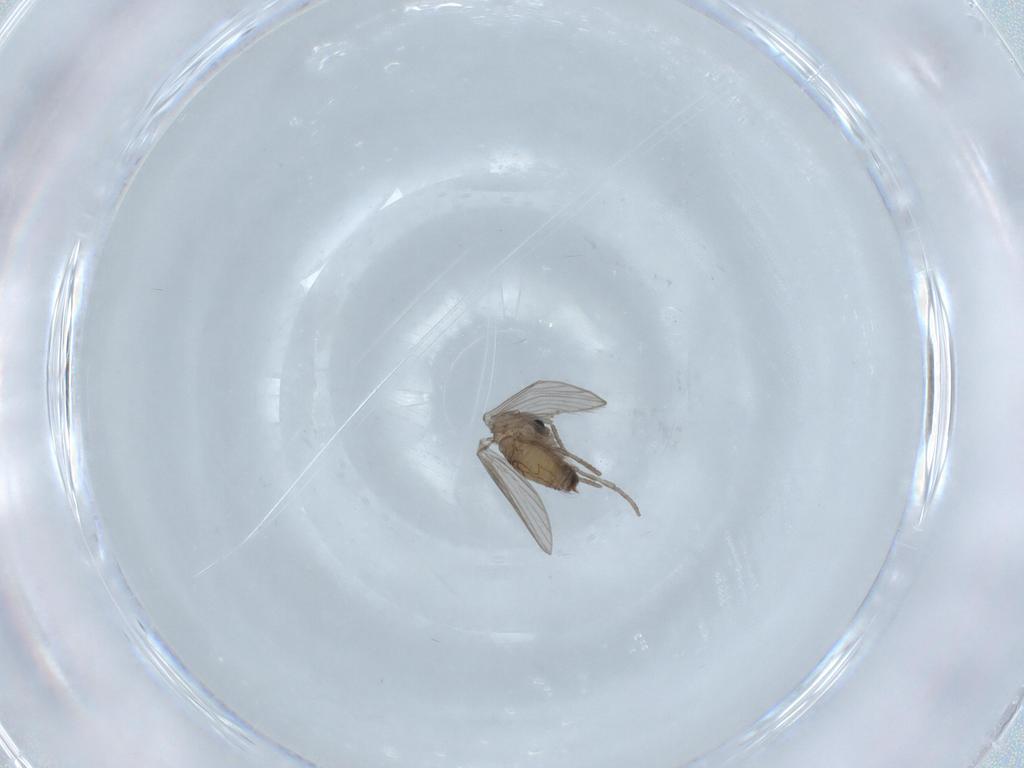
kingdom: Animalia
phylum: Arthropoda
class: Insecta
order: Diptera
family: Psychodidae
